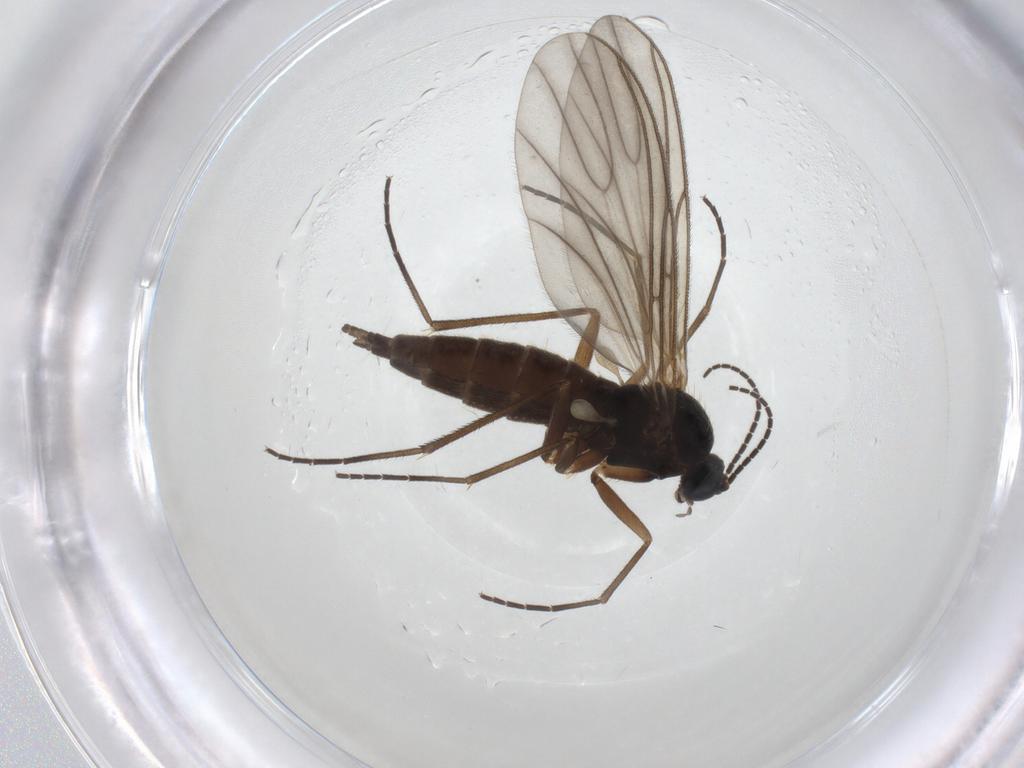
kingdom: Animalia
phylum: Arthropoda
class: Insecta
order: Diptera
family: Sciaridae
